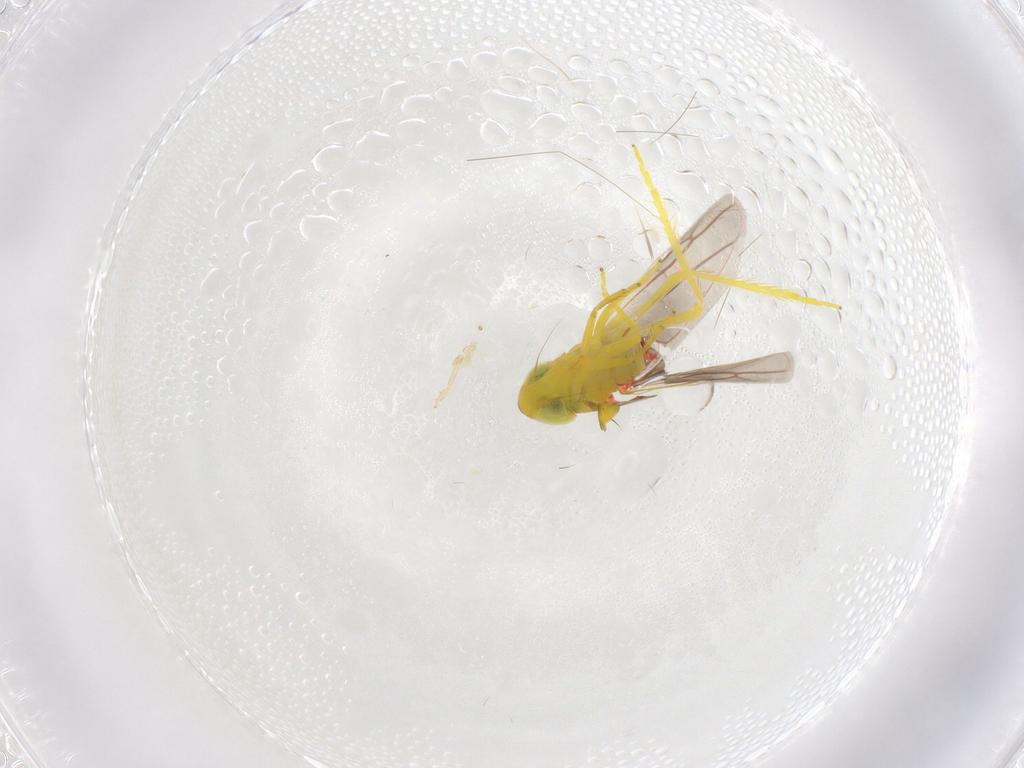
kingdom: Animalia
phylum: Arthropoda
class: Insecta
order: Hemiptera
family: Cicadellidae
